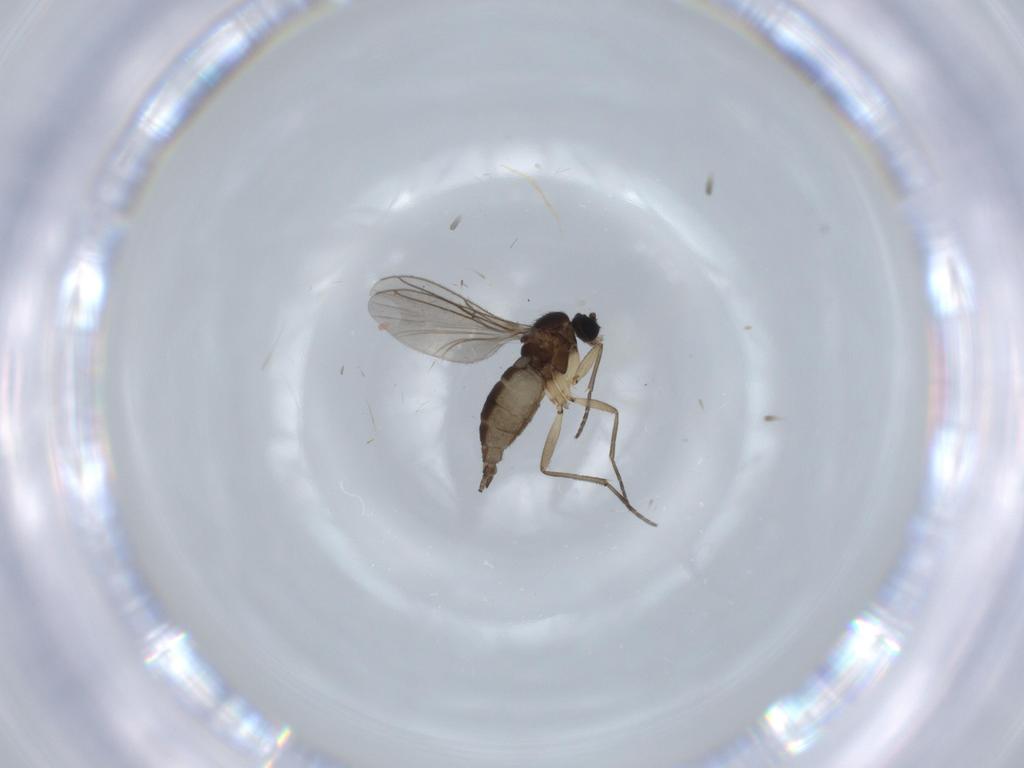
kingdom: Animalia
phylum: Arthropoda
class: Insecta
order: Diptera
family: Sciaridae
